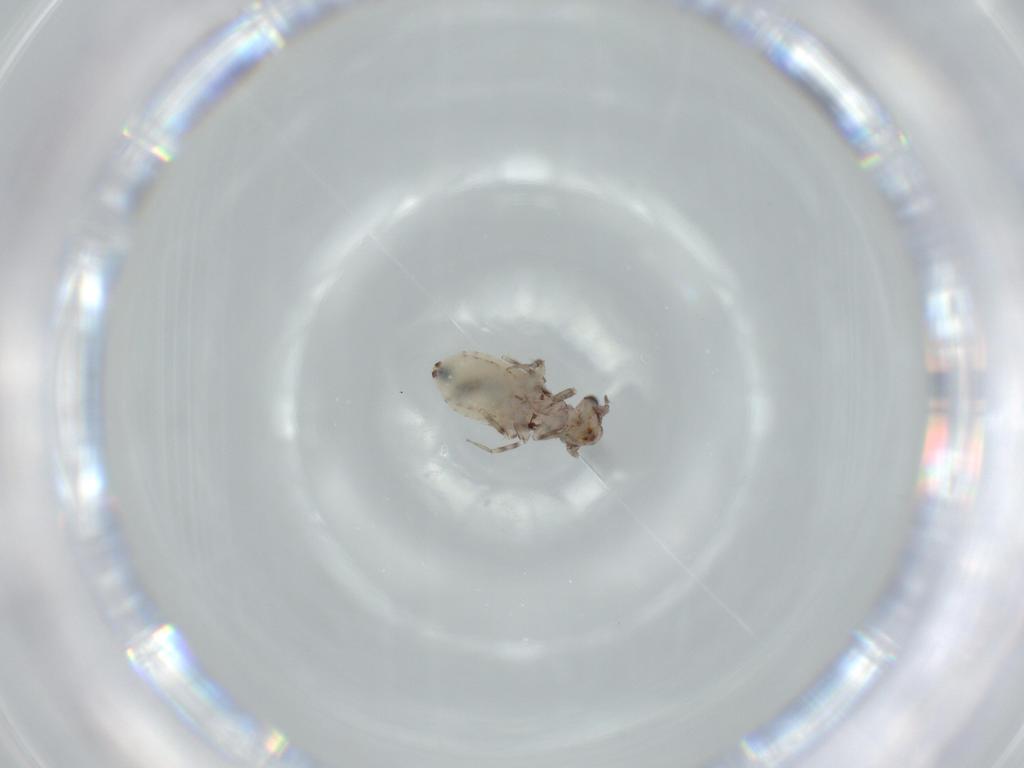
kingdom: Animalia
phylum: Arthropoda
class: Insecta
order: Psocodea
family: Lepidopsocidae
